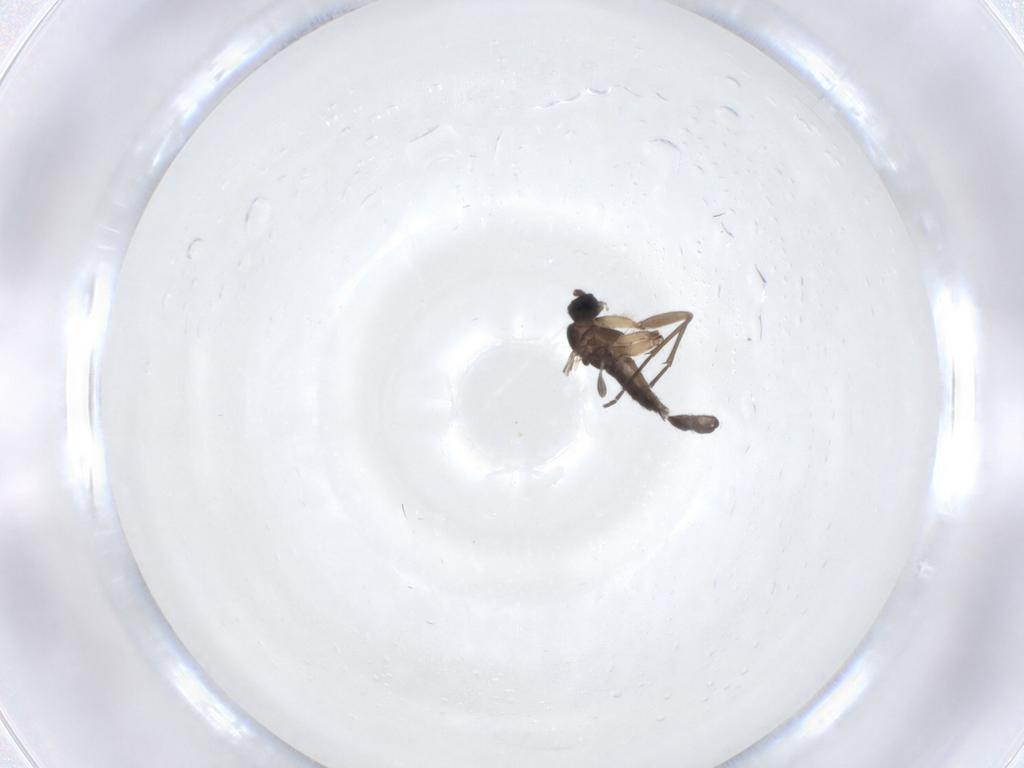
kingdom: Animalia
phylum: Arthropoda
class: Insecta
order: Diptera
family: Sciaridae
